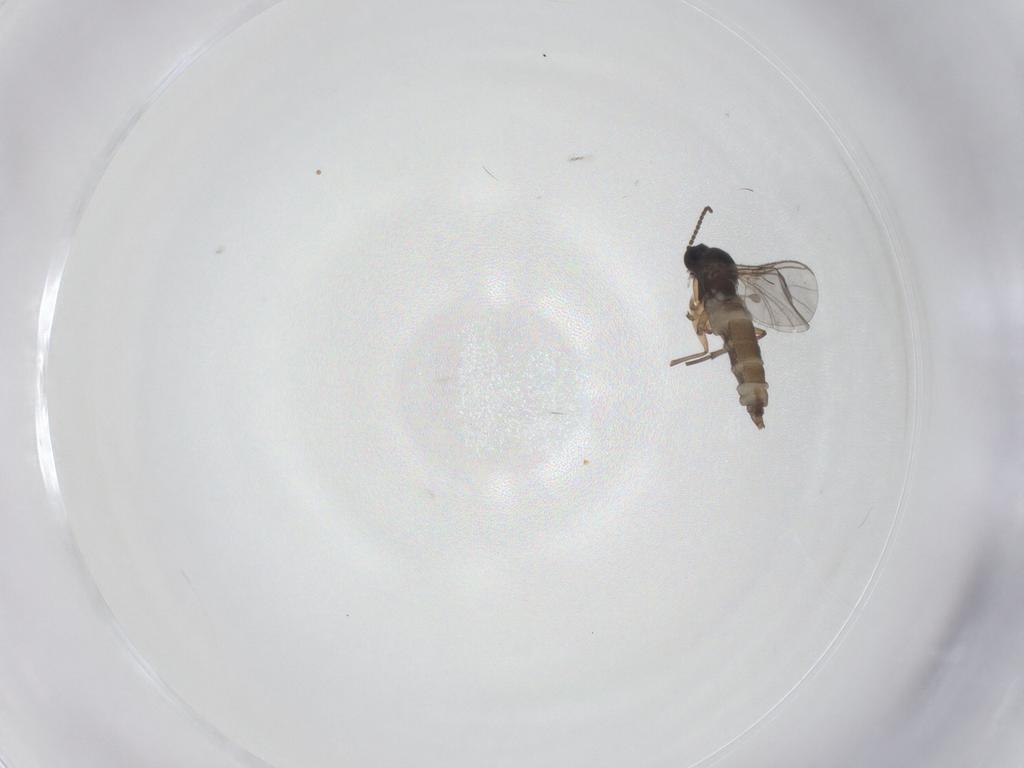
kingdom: Animalia
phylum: Arthropoda
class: Insecta
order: Diptera
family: Sciaridae
